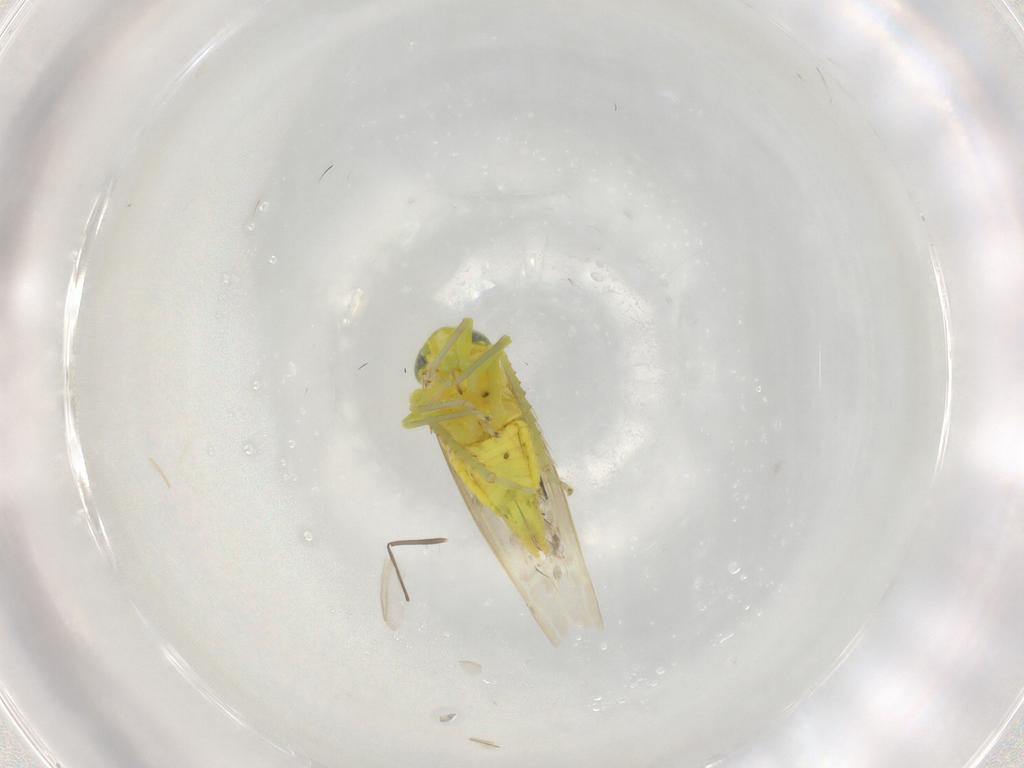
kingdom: Animalia
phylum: Arthropoda
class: Insecta
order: Hemiptera
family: Cicadellidae
